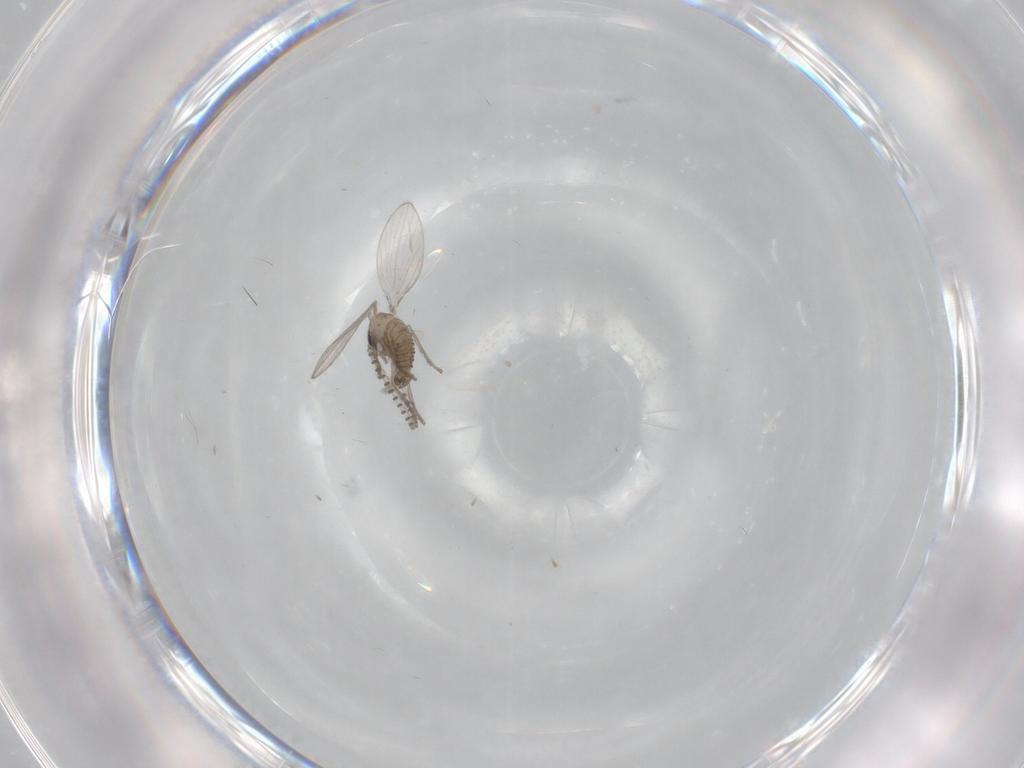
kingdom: Animalia
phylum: Arthropoda
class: Insecta
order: Diptera
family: Psychodidae
